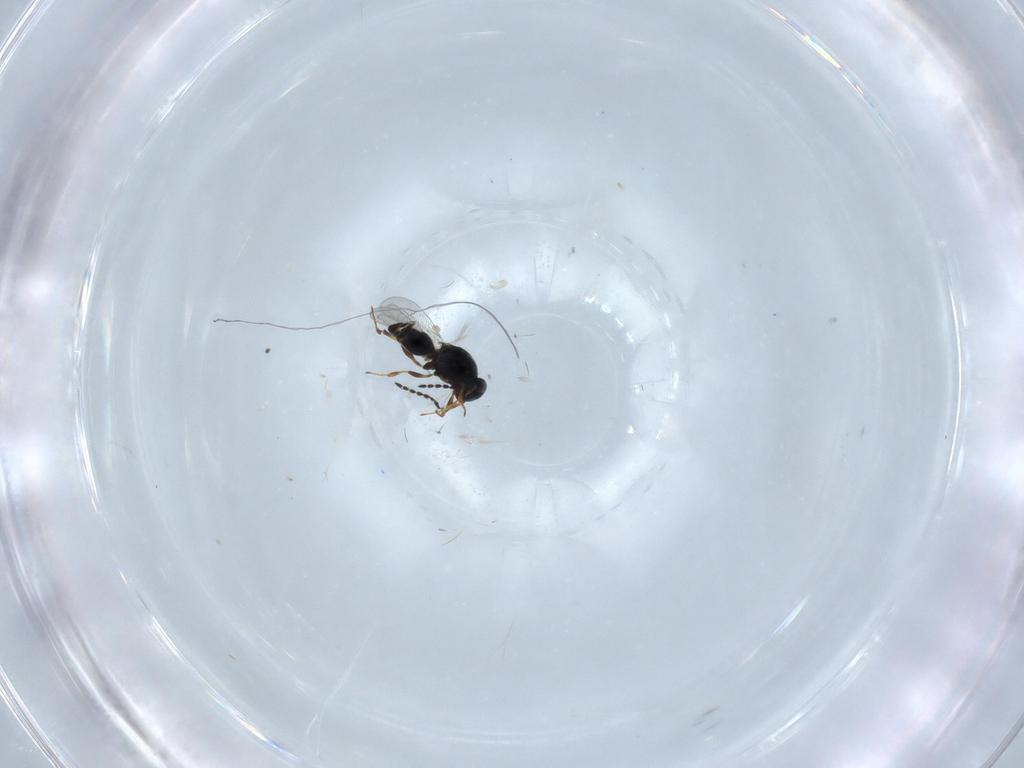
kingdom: Animalia
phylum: Arthropoda
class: Insecta
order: Hymenoptera
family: Platygastridae
